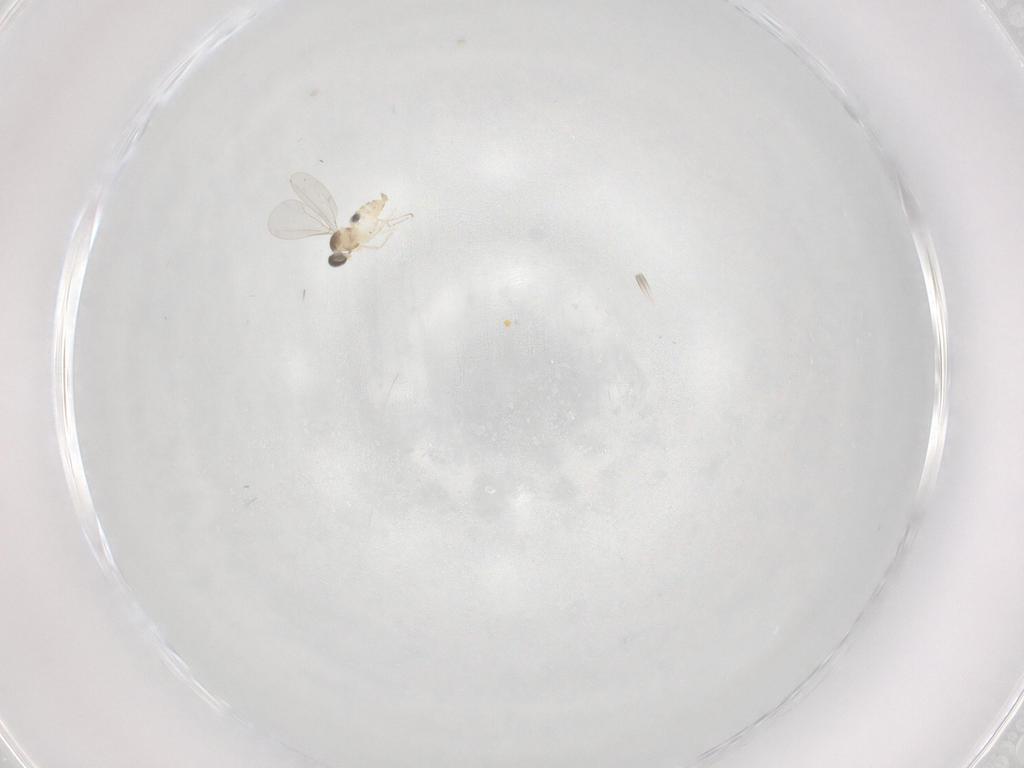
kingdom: Animalia
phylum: Arthropoda
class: Insecta
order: Diptera
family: Cecidomyiidae
